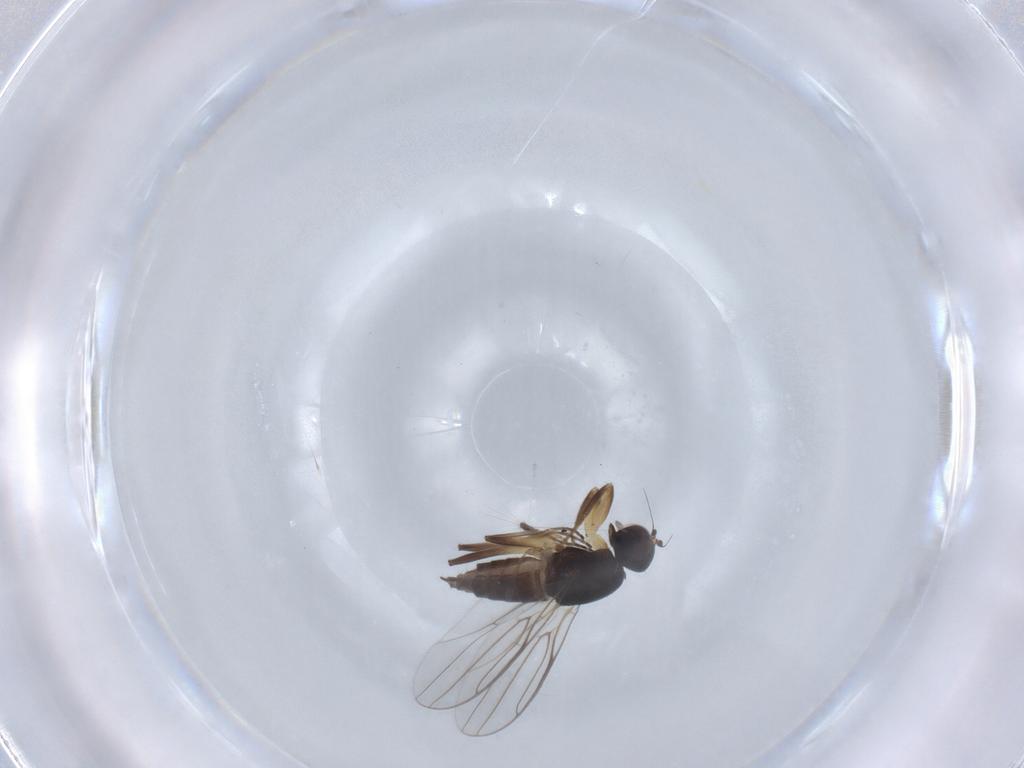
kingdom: Animalia
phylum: Arthropoda
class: Insecta
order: Diptera
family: Hybotidae
